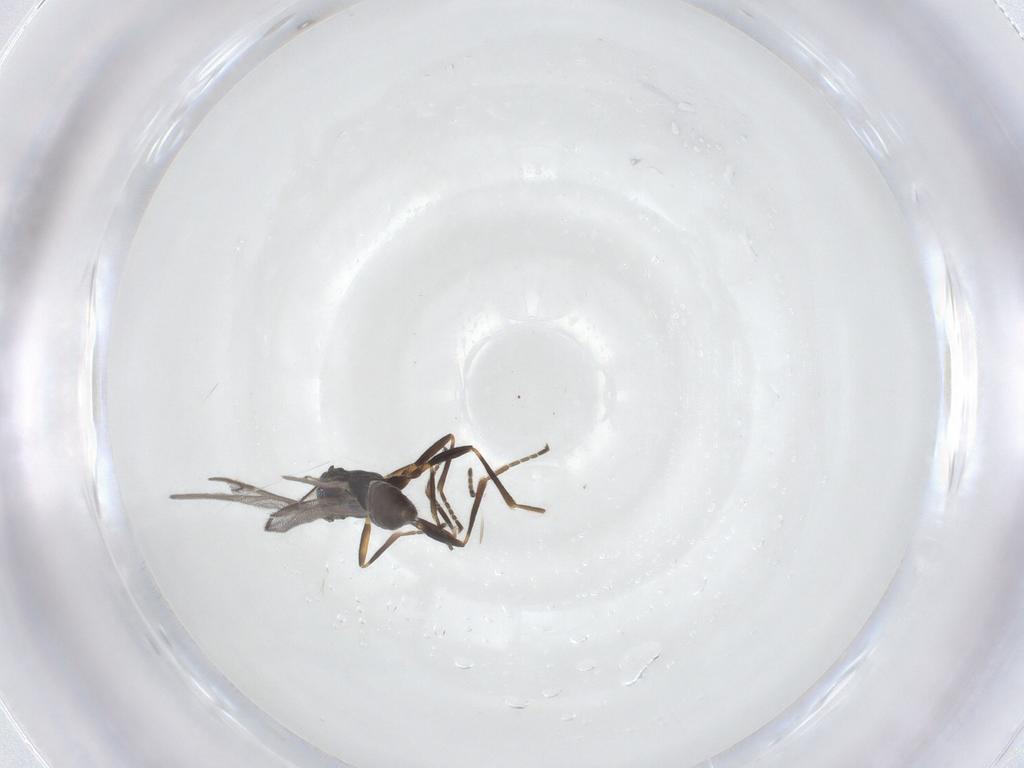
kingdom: Animalia
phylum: Arthropoda
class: Insecta
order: Hymenoptera
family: Braconidae
